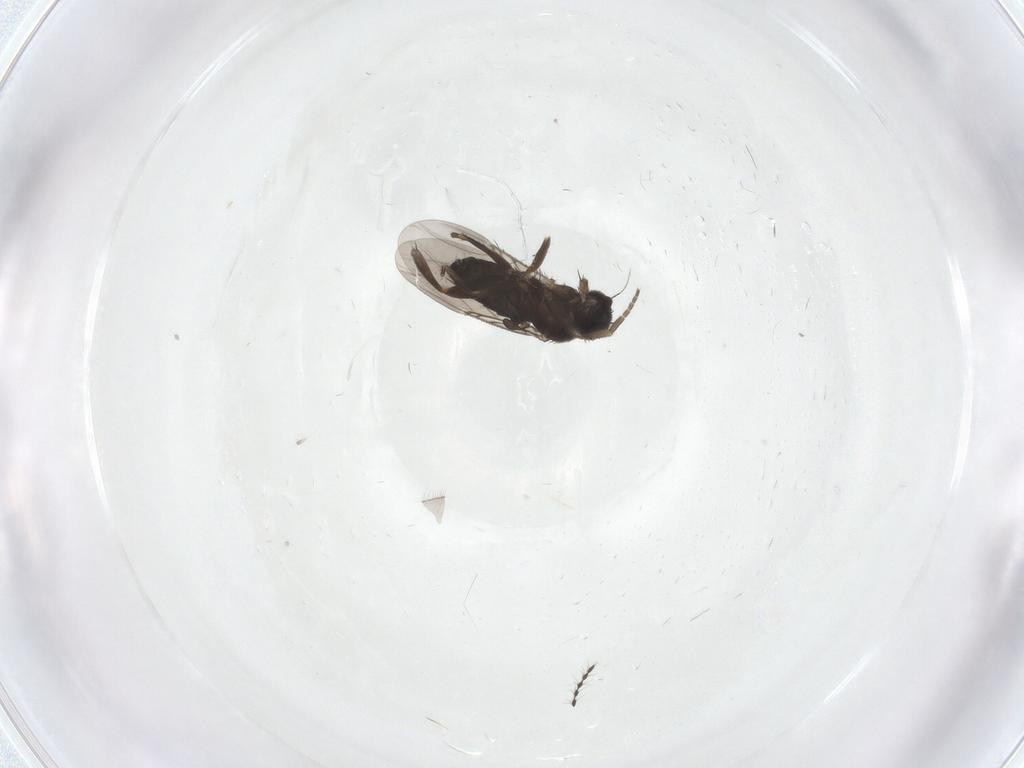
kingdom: Animalia
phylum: Arthropoda
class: Insecta
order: Diptera
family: Phoridae
